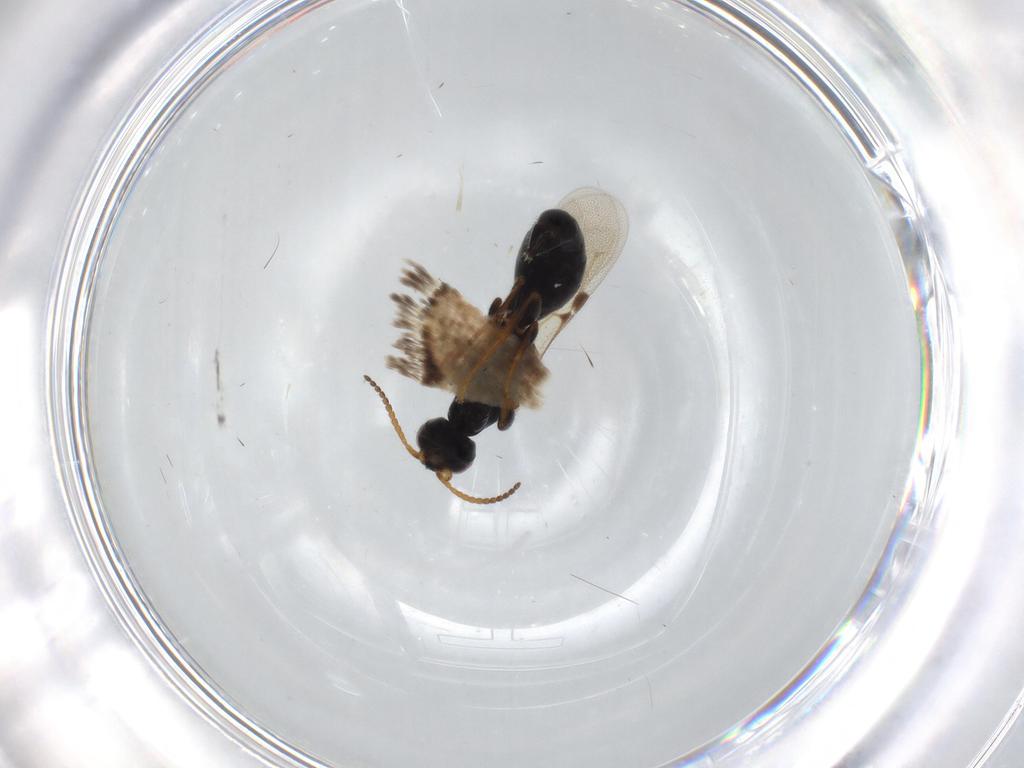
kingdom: Animalia
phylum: Arthropoda
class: Insecta
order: Hymenoptera
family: Bethylidae
